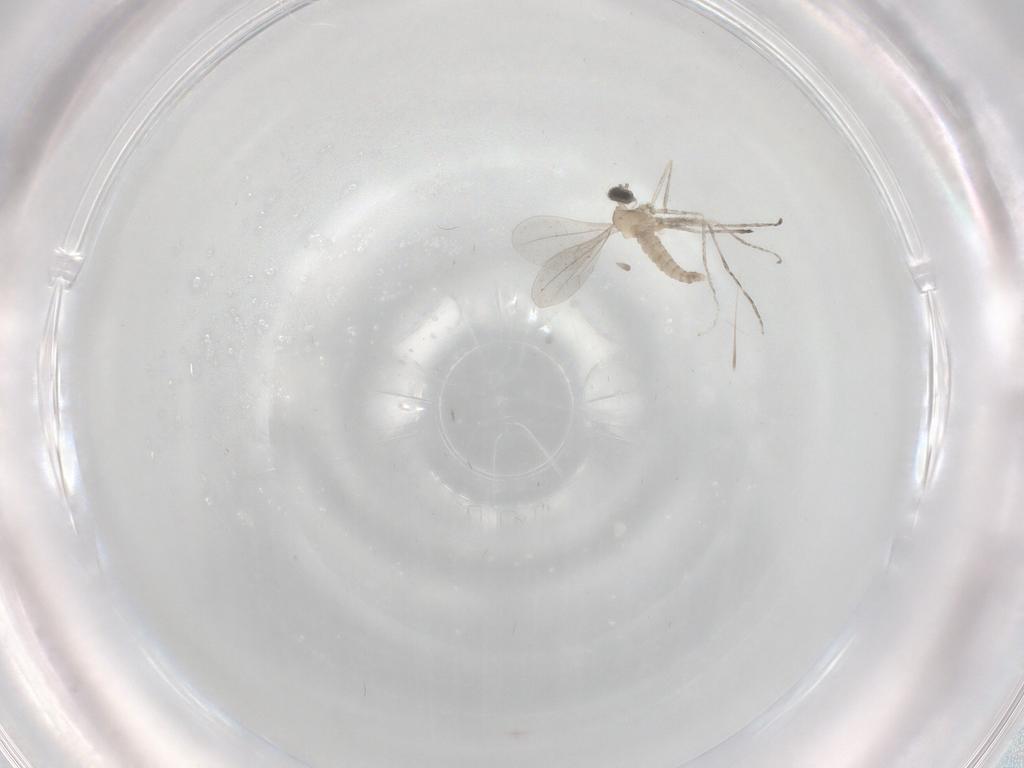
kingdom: Animalia
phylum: Arthropoda
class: Insecta
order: Diptera
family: Cecidomyiidae
